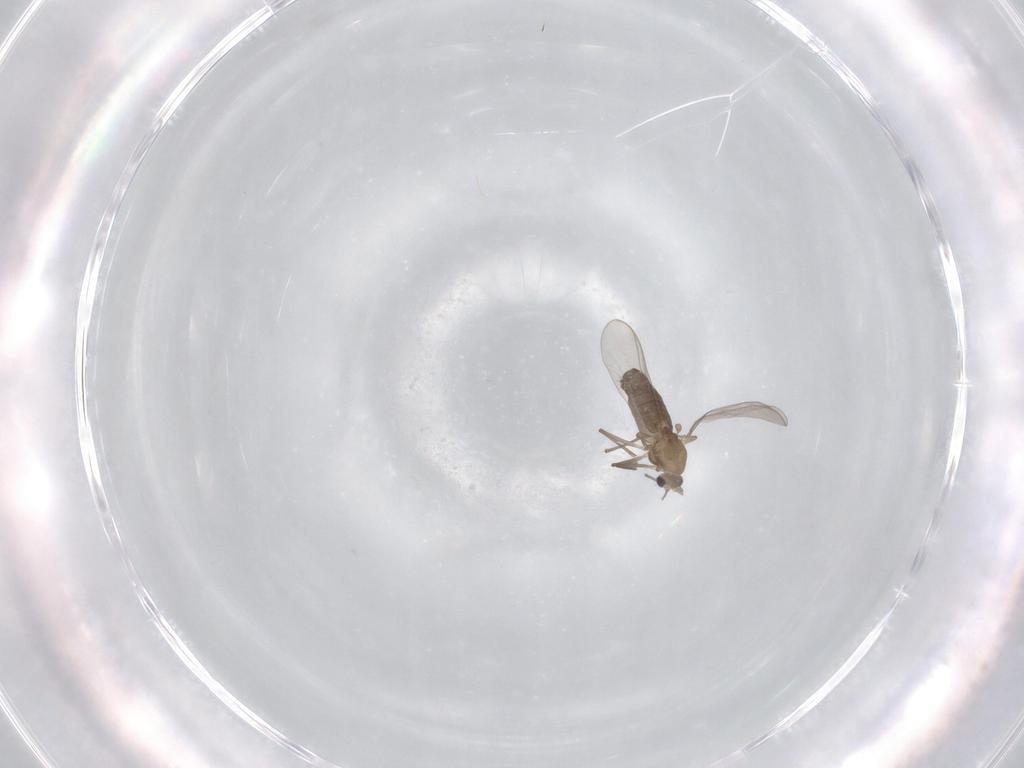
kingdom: Animalia
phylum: Arthropoda
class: Insecta
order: Diptera
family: Chironomidae
